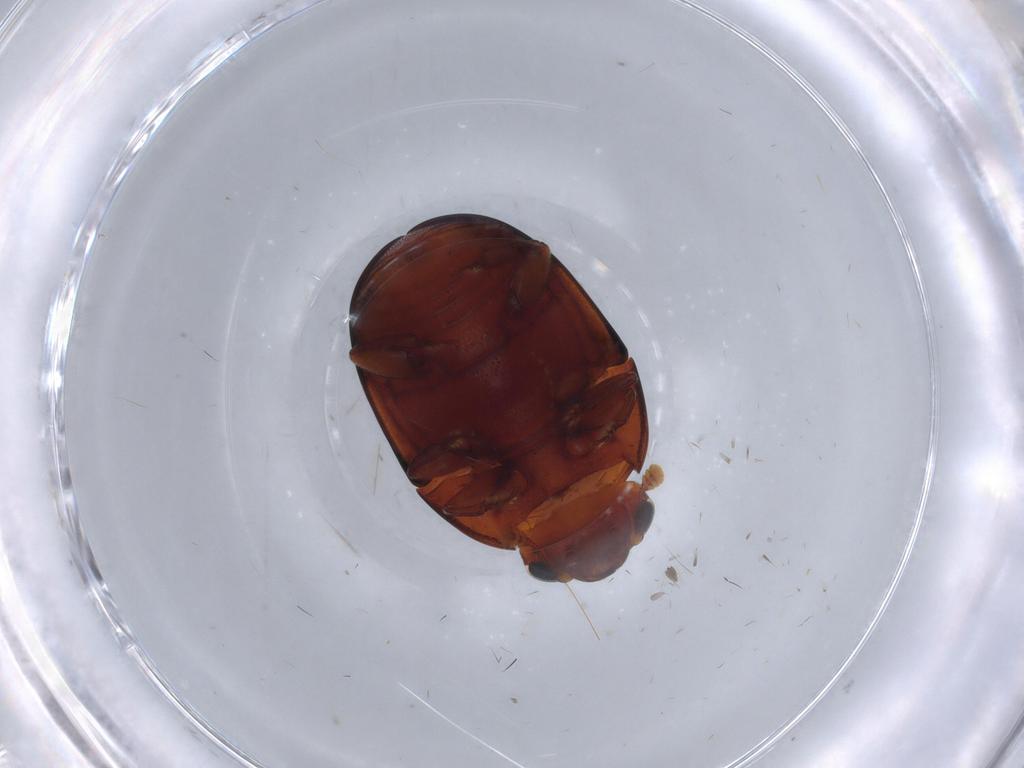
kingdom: Animalia
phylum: Arthropoda
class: Insecta
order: Coleoptera
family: Nitidulidae
